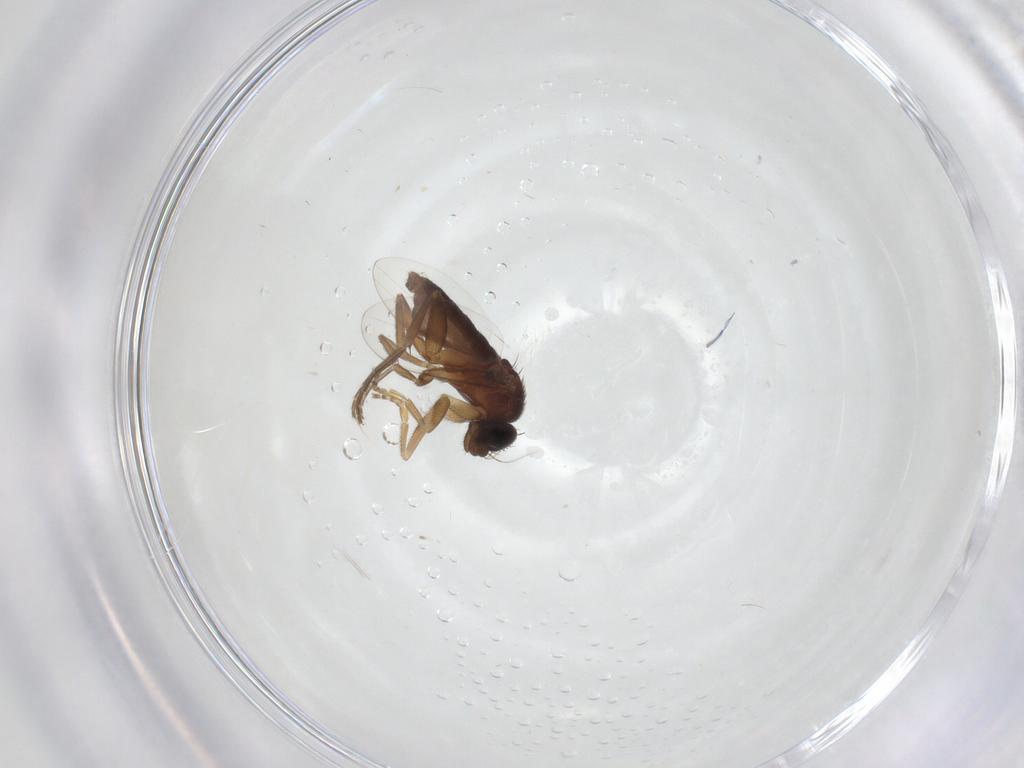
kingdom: Animalia
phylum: Arthropoda
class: Insecta
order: Diptera
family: Phoridae
